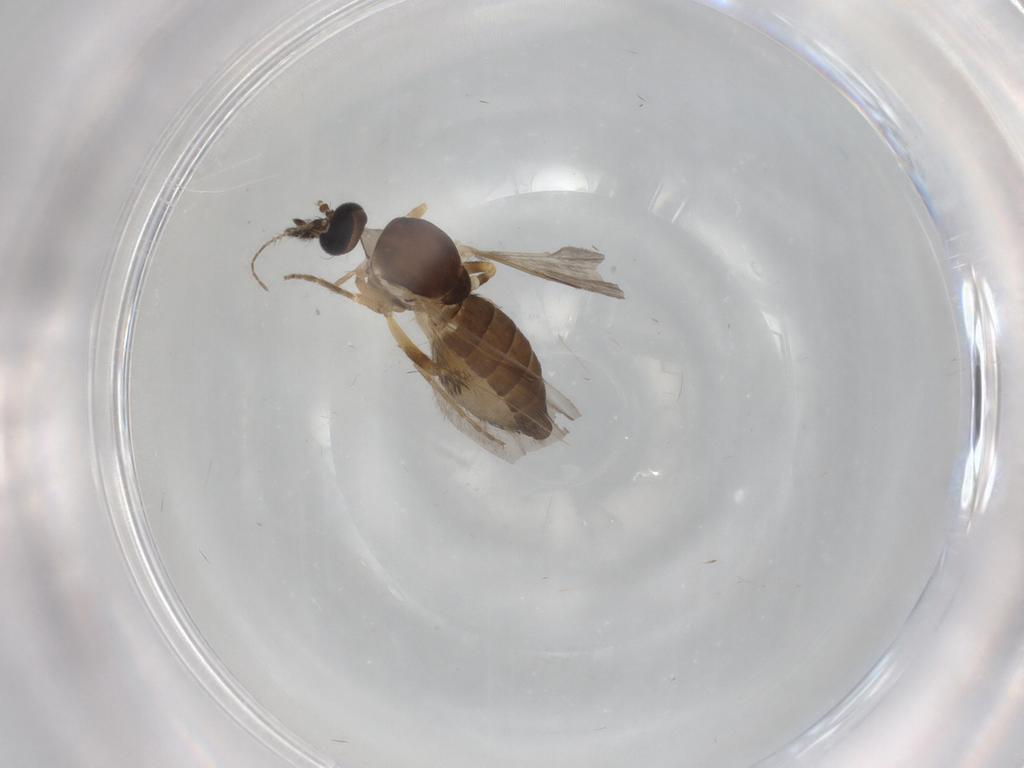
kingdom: Animalia
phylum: Arthropoda
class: Insecta
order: Diptera
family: Ceratopogonidae
